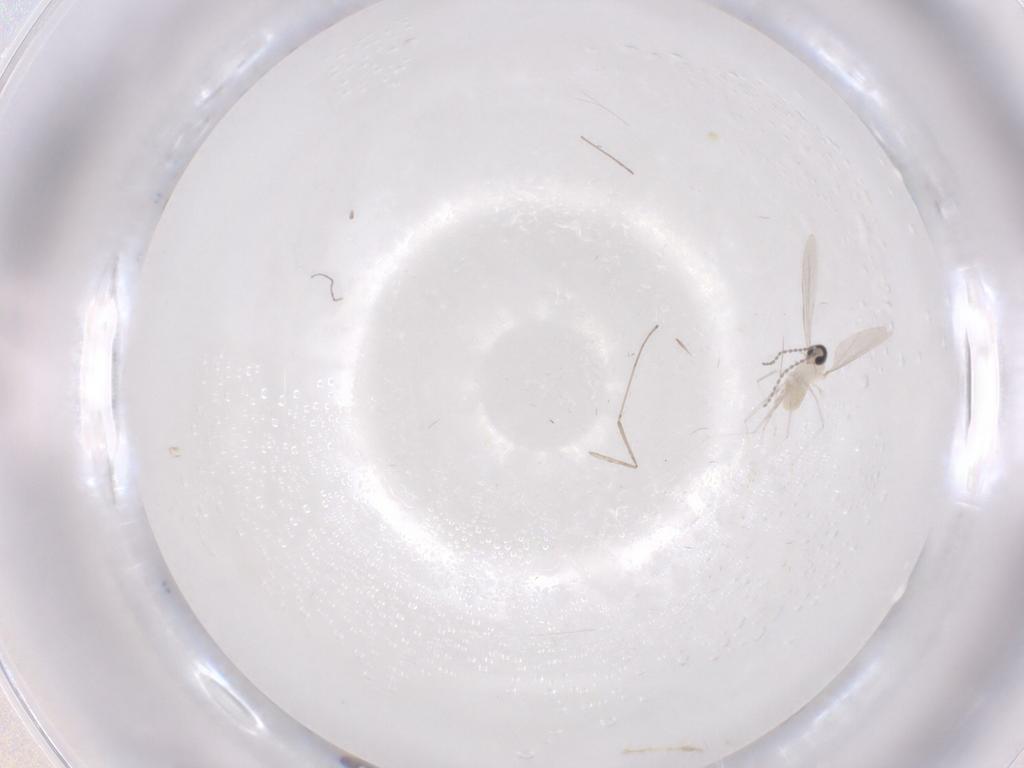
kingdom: Animalia
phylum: Arthropoda
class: Insecta
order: Diptera
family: Cecidomyiidae
